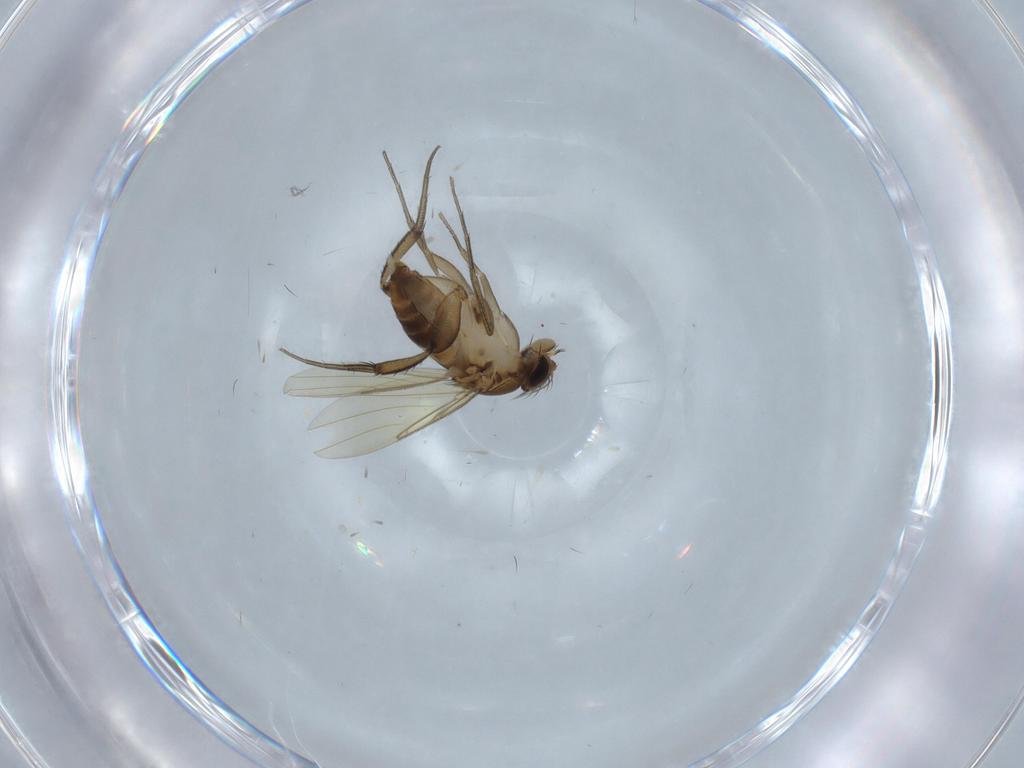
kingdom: Animalia
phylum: Arthropoda
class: Insecta
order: Diptera
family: Phoridae
